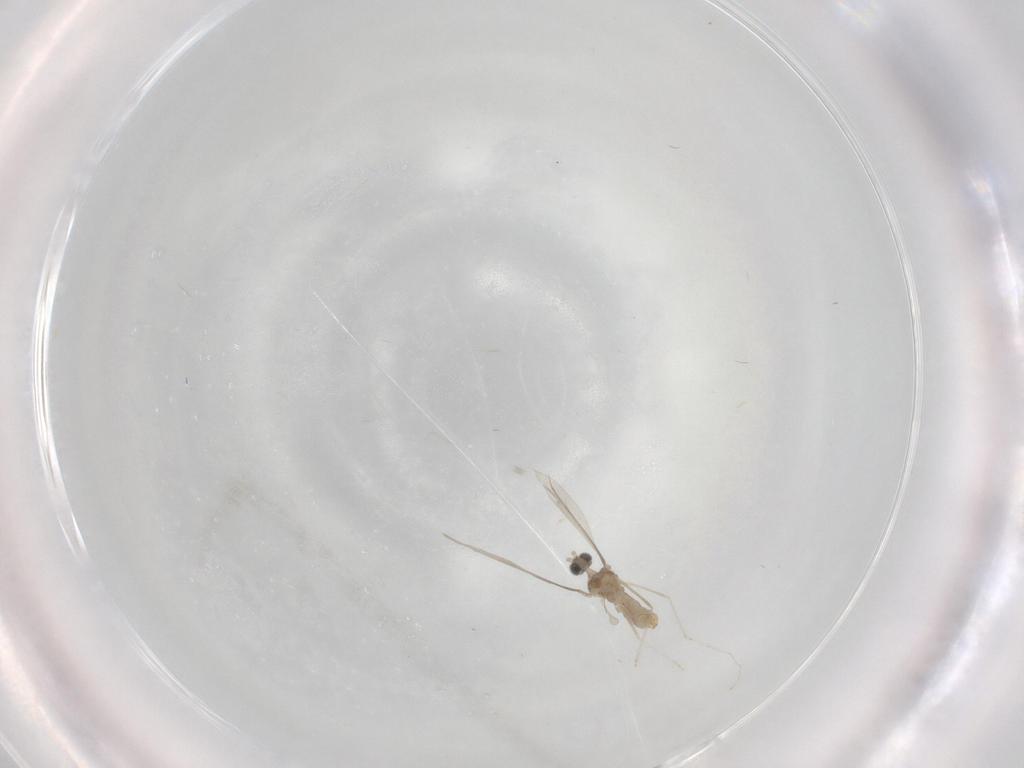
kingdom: Animalia
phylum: Arthropoda
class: Insecta
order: Diptera
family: Cecidomyiidae
